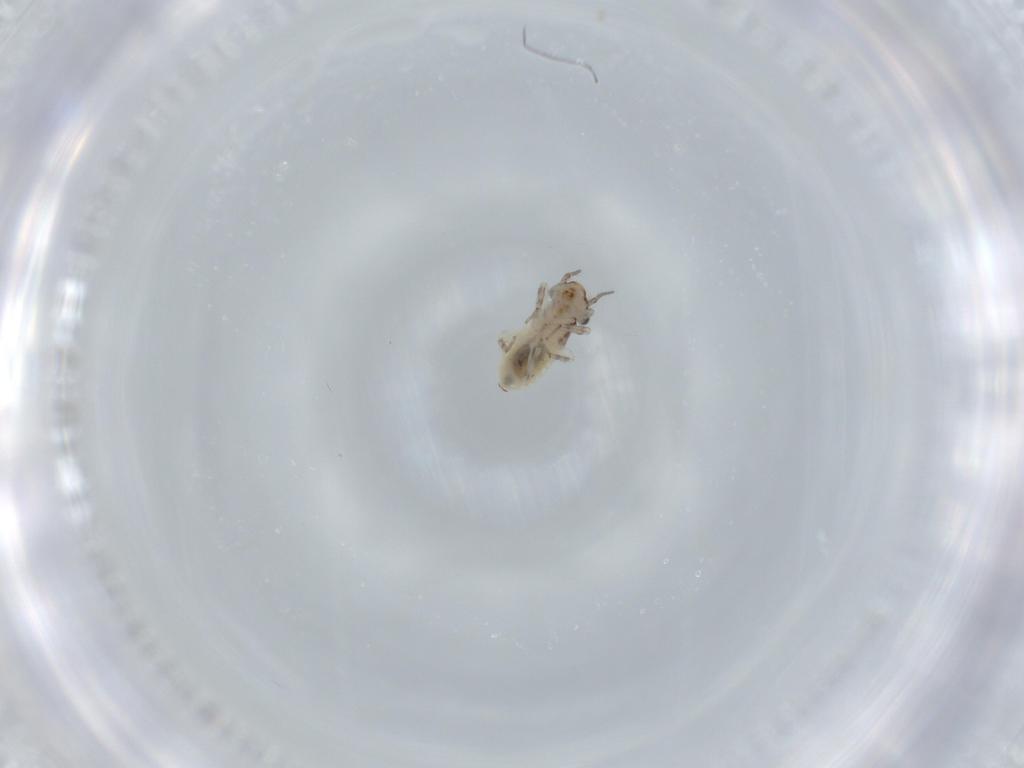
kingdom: Animalia
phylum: Arthropoda
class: Insecta
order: Psocodea
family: Lepidopsocidae
